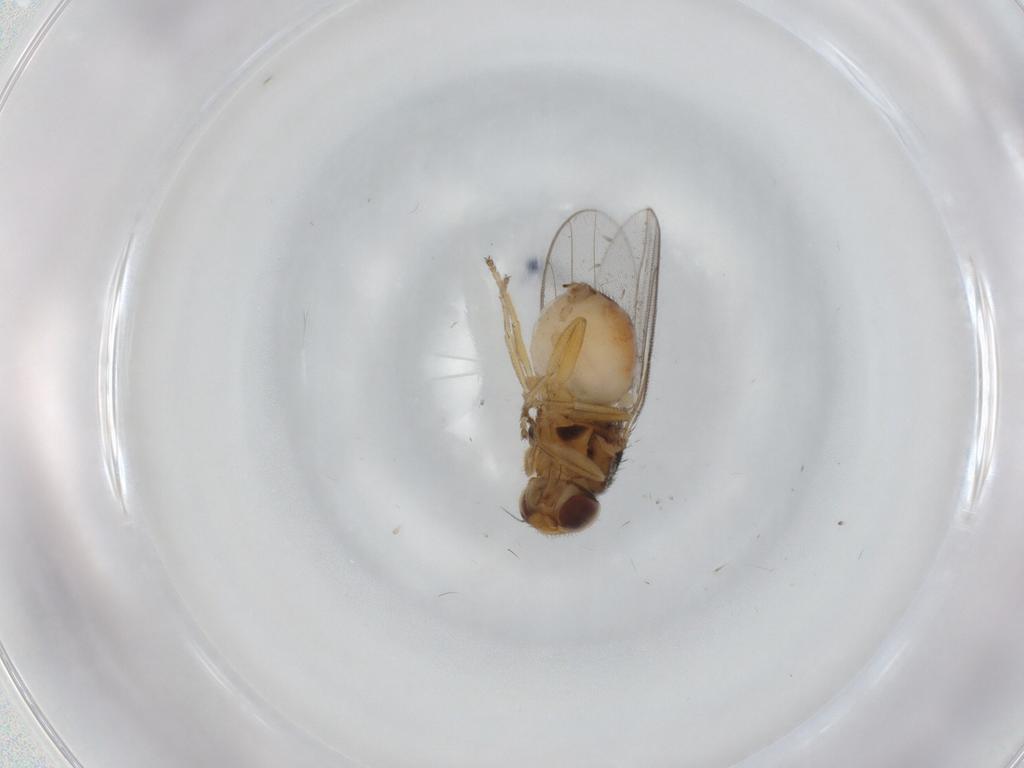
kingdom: Animalia
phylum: Arthropoda
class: Insecta
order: Diptera
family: Chloropidae
